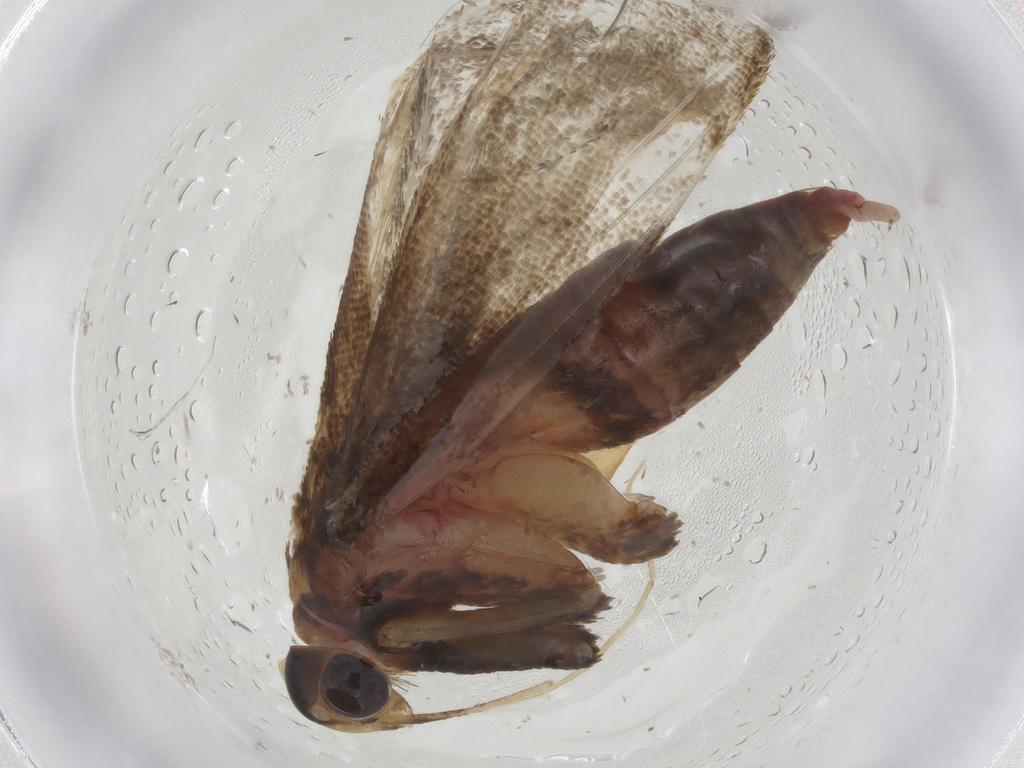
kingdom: Animalia
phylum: Arthropoda
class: Insecta
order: Lepidoptera
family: Lecithoceridae
